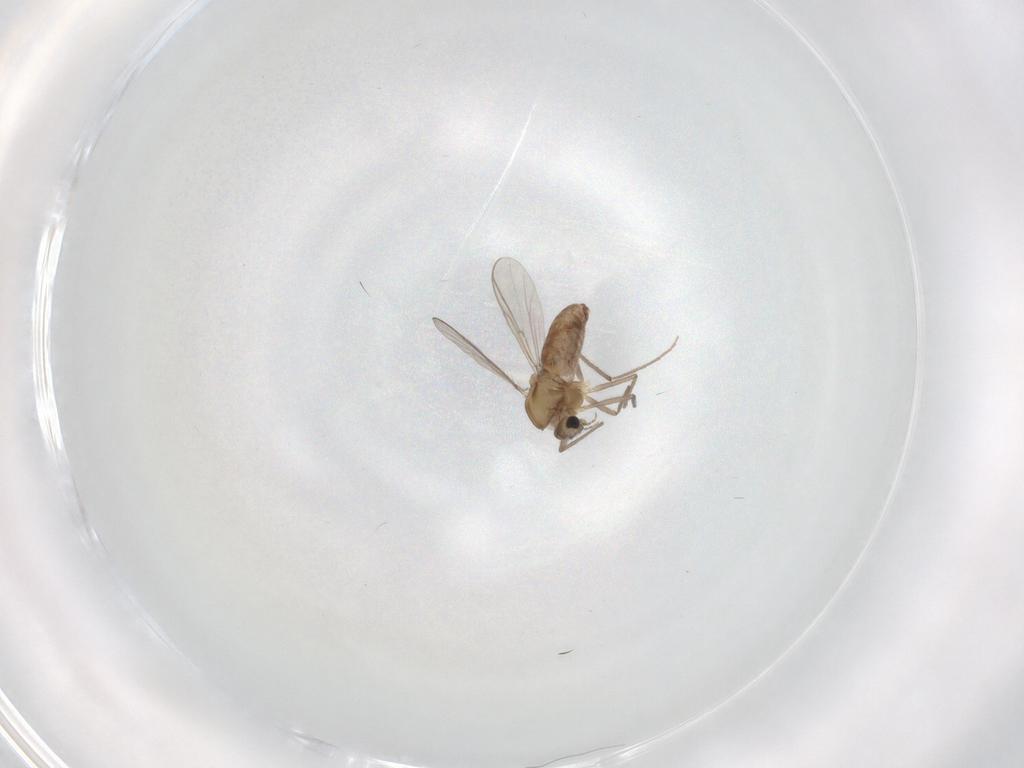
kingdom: Animalia
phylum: Arthropoda
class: Insecta
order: Diptera
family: Chironomidae
